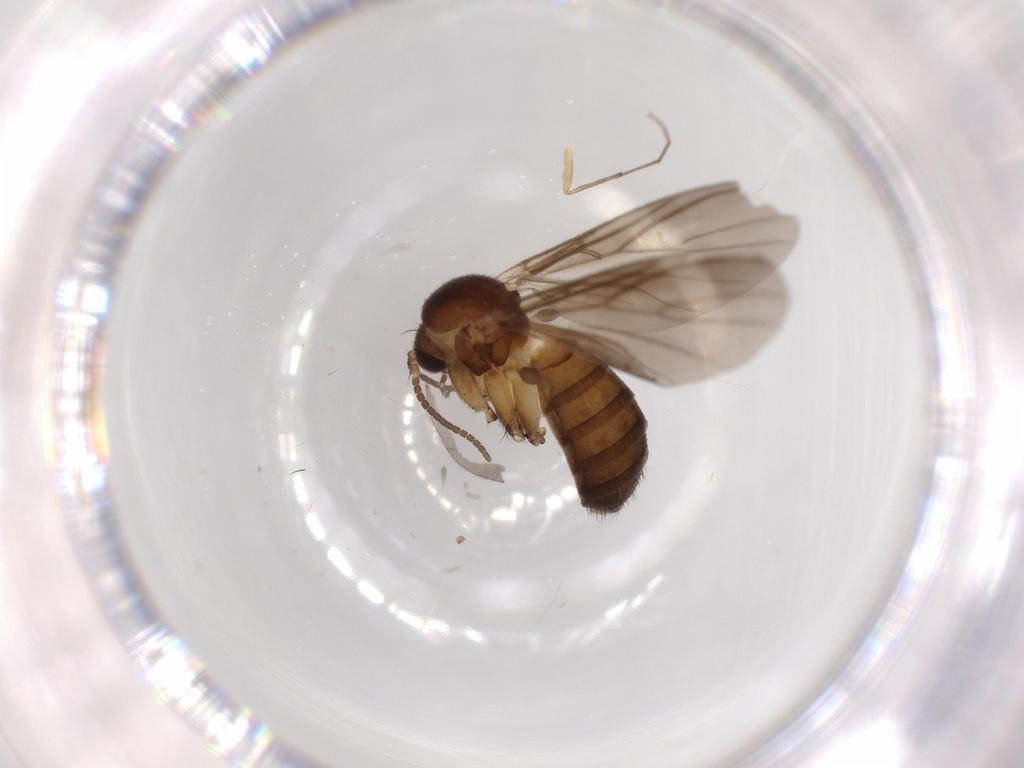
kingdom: Animalia
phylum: Arthropoda
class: Insecta
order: Diptera
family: Mycetophilidae
